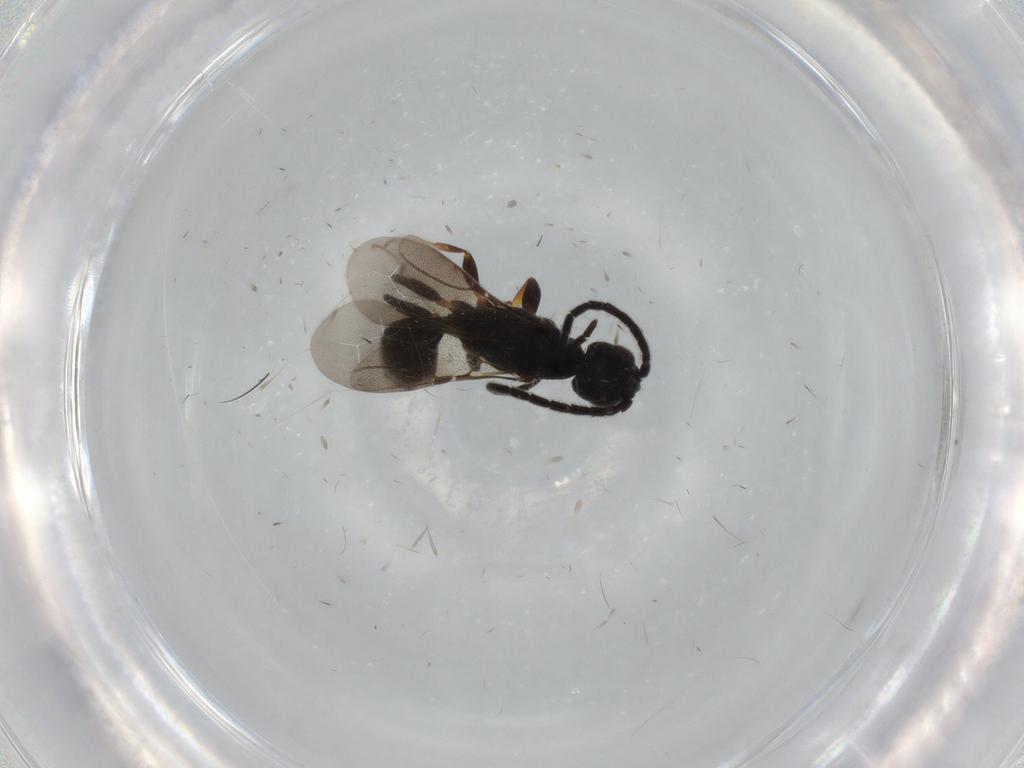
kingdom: Animalia
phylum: Arthropoda
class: Insecta
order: Hymenoptera
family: Bethylidae
